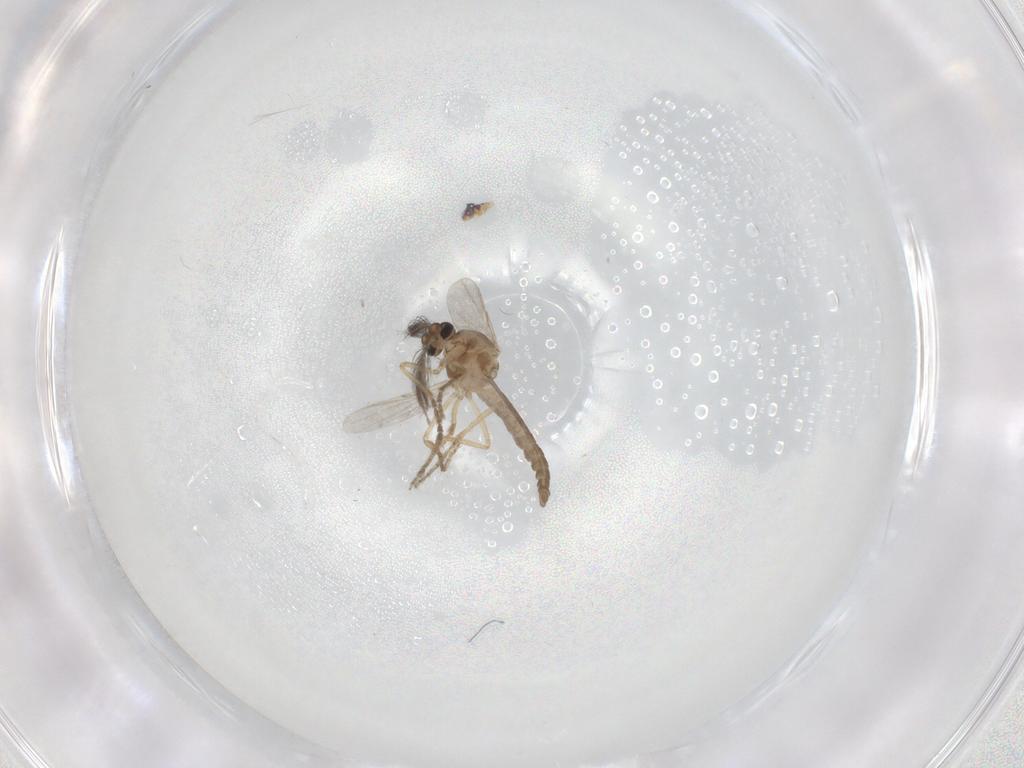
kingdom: Animalia
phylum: Arthropoda
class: Insecta
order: Diptera
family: Ceratopogonidae
